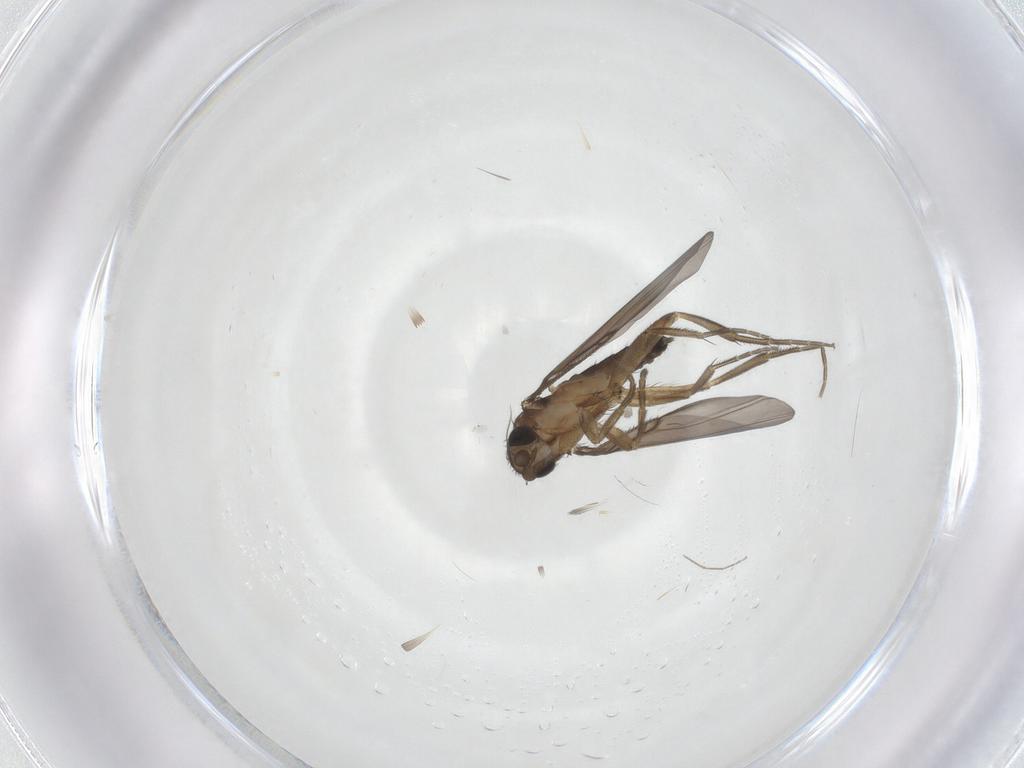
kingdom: Animalia
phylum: Arthropoda
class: Insecta
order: Diptera
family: Phoridae
